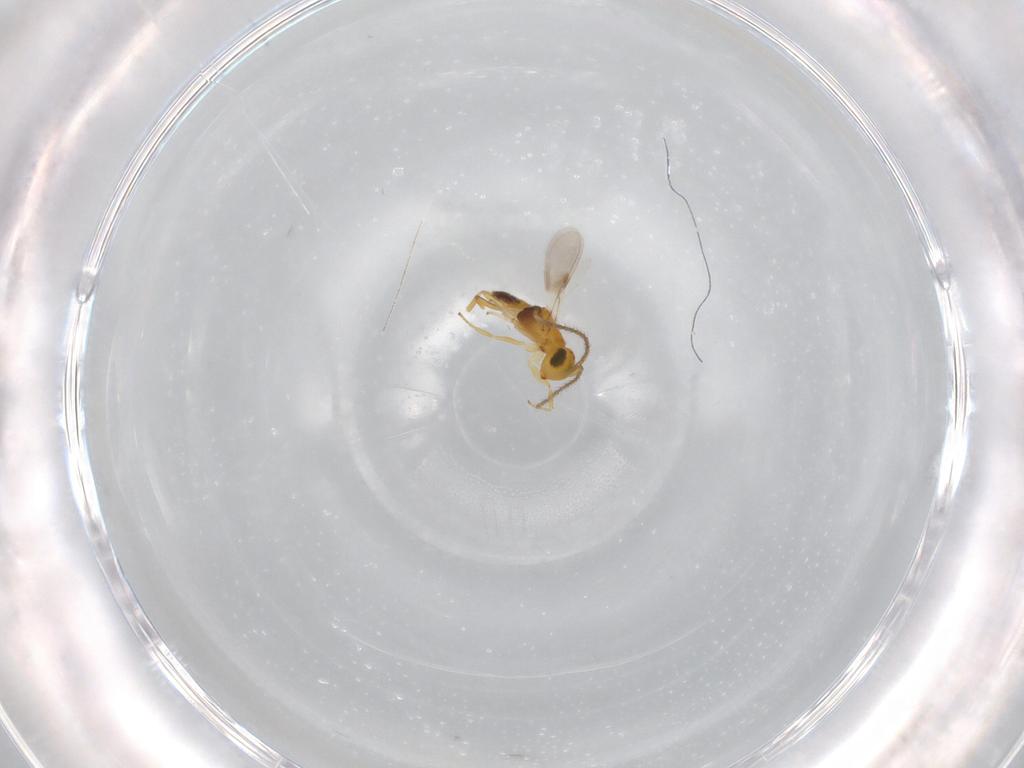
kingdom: Animalia
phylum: Arthropoda
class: Insecta
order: Hymenoptera
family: Encyrtidae
